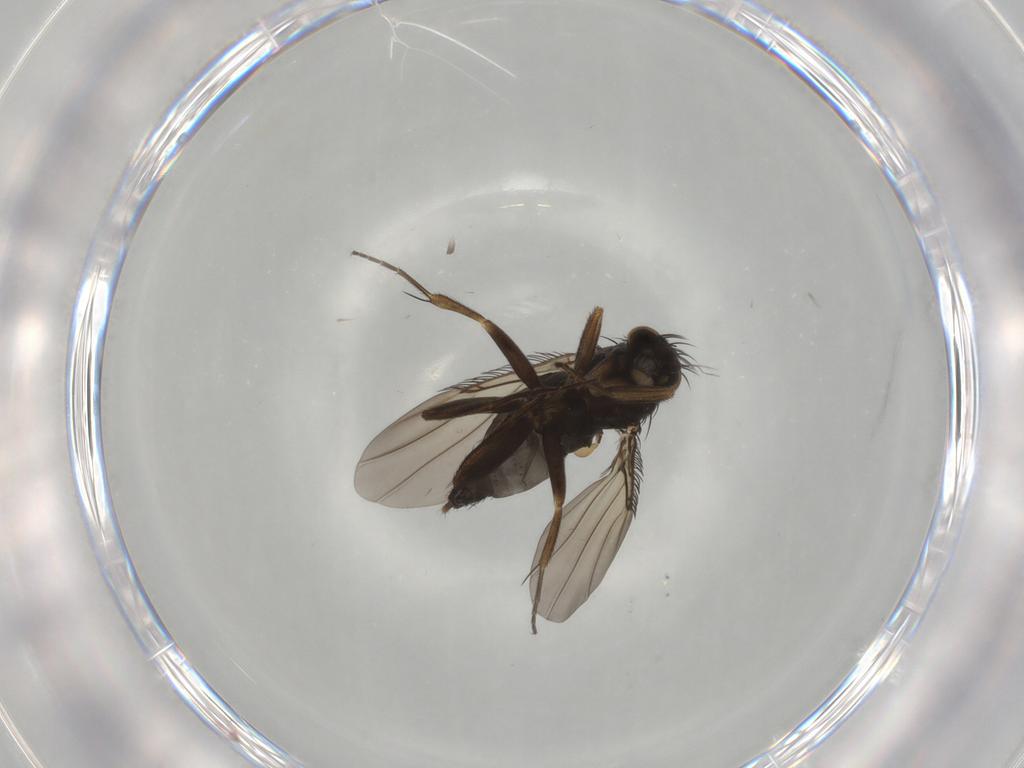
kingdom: Animalia
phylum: Arthropoda
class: Insecta
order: Diptera
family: Phoridae
